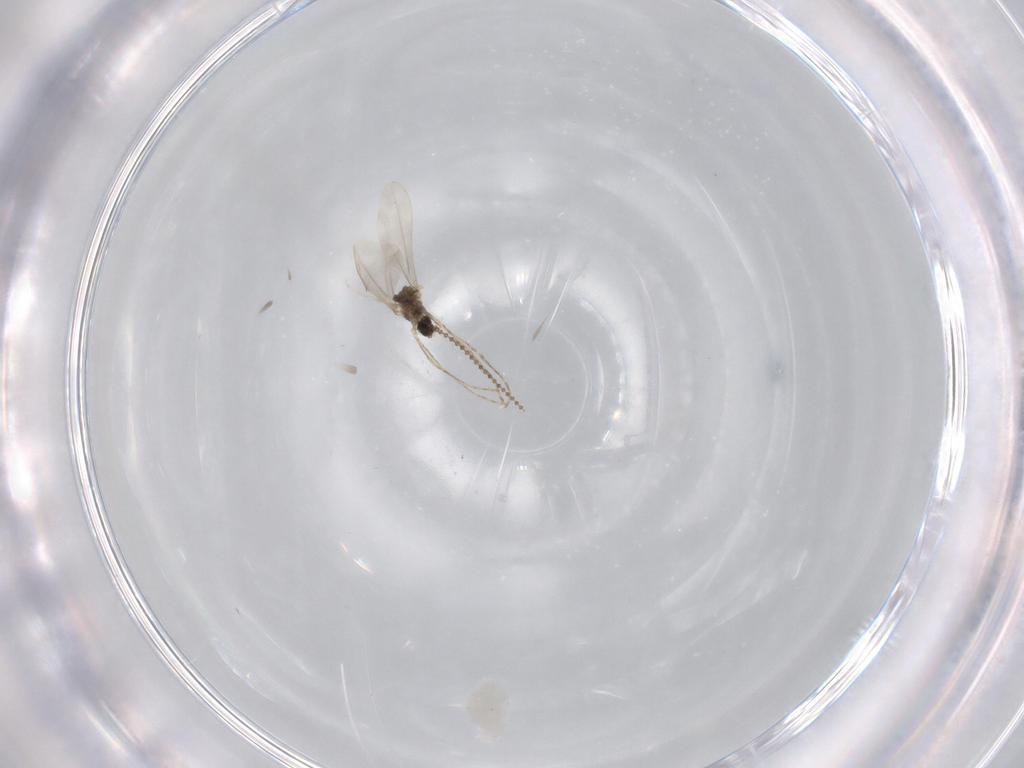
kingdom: Animalia
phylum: Arthropoda
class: Insecta
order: Diptera
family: Cecidomyiidae
